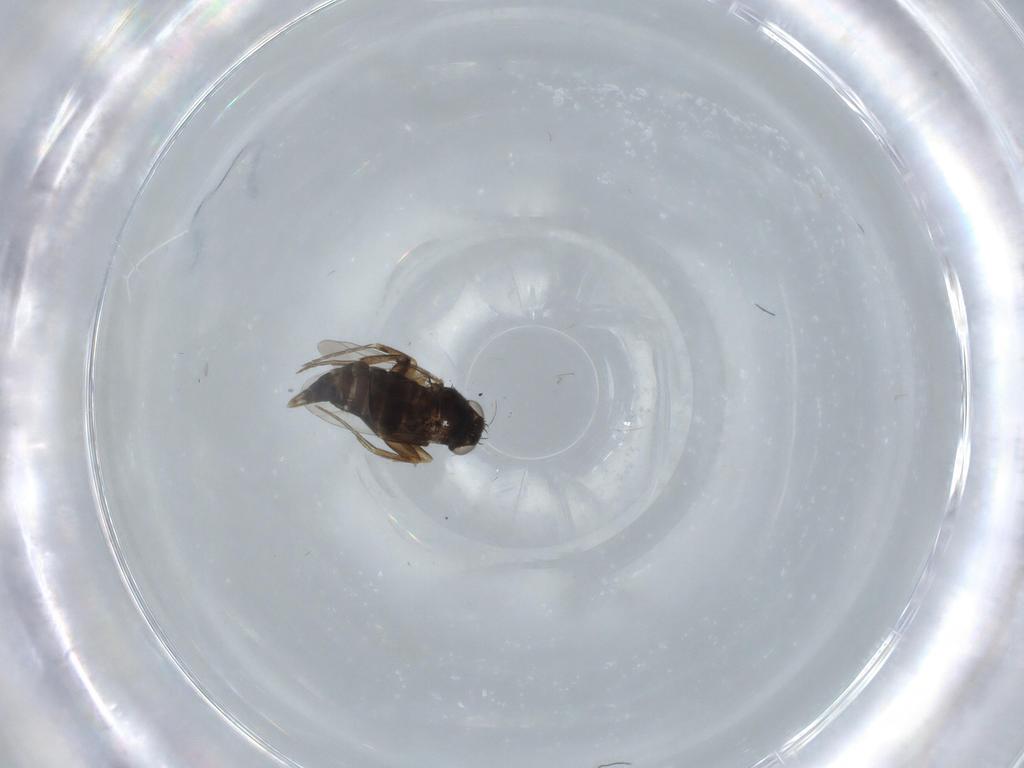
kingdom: Animalia
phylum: Arthropoda
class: Insecta
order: Diptera
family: Phoridae
